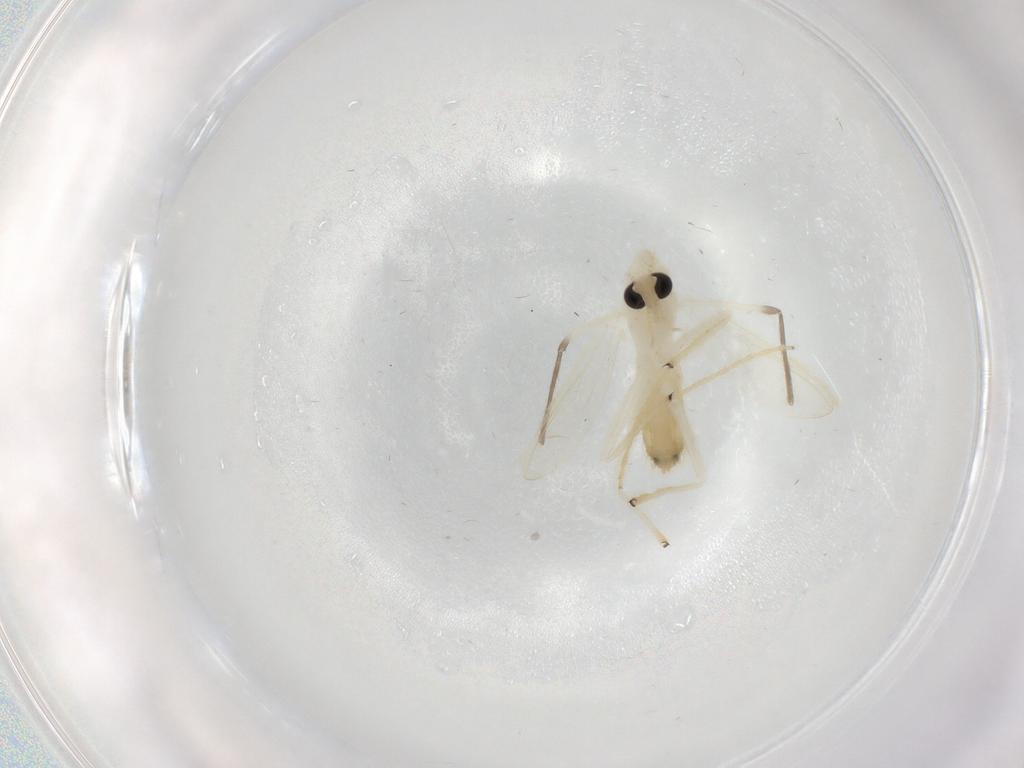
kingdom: Animalia
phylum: Arthropoda
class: Insecta
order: Diptera
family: Chironomidae
